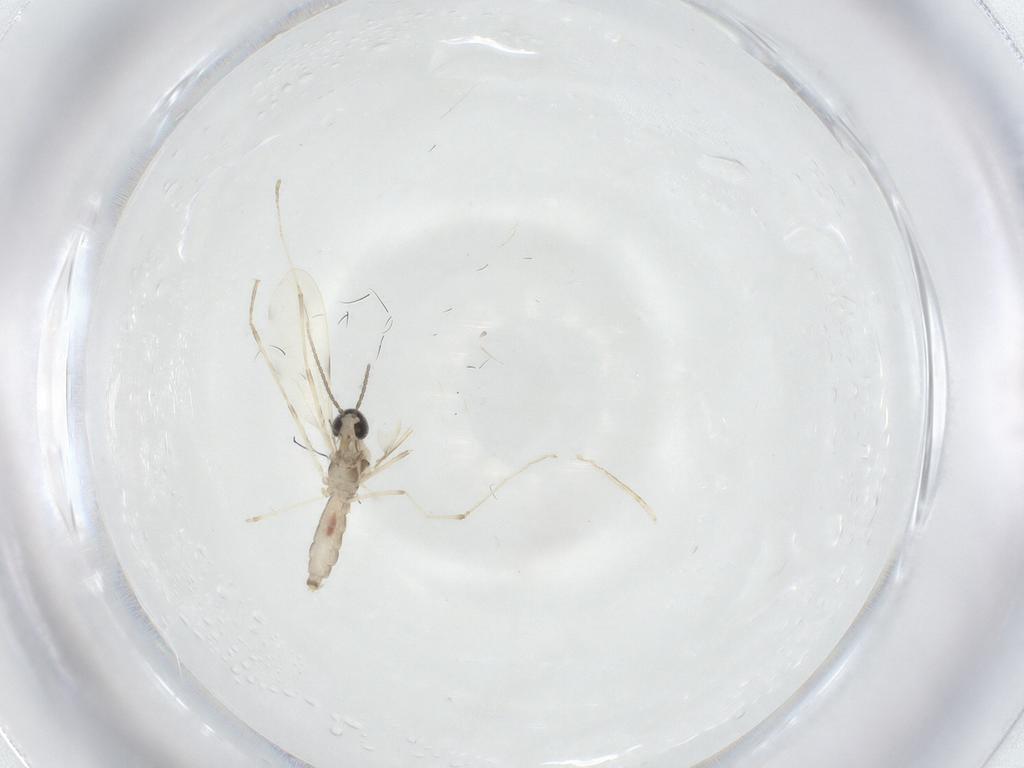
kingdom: Animalia
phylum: Arthropoda
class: Insecta
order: Diptera
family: Cecidomyiidae
